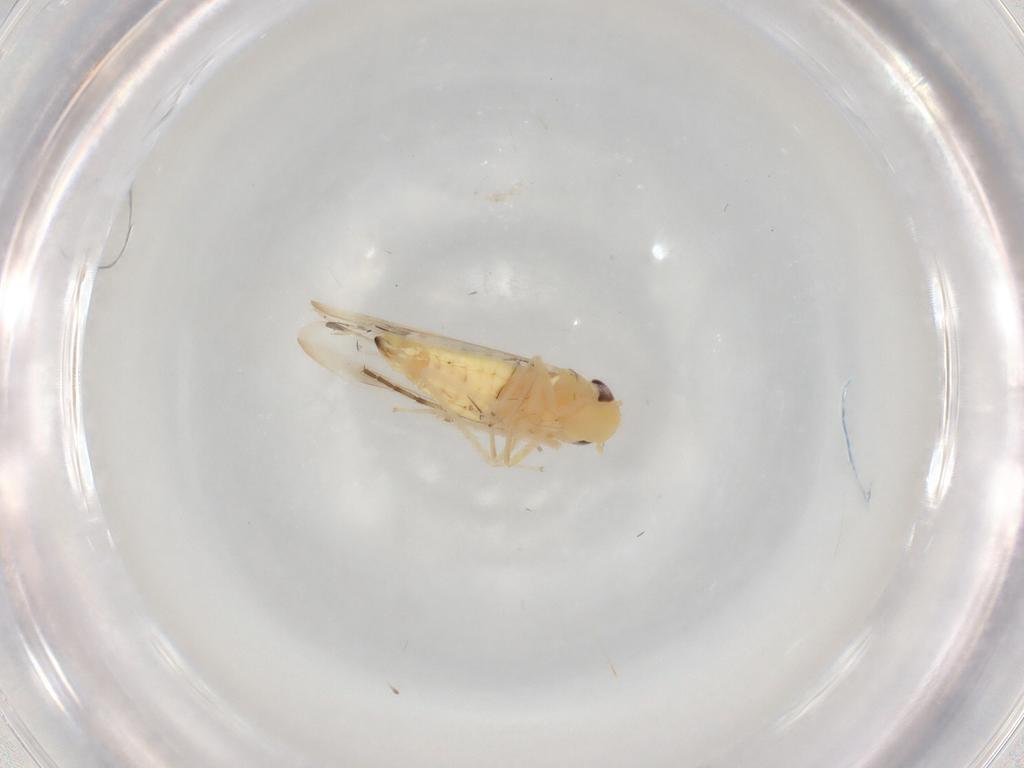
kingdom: Animalia
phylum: Arthropoda
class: Insecta
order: Hemiptera
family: Cicadellidae
